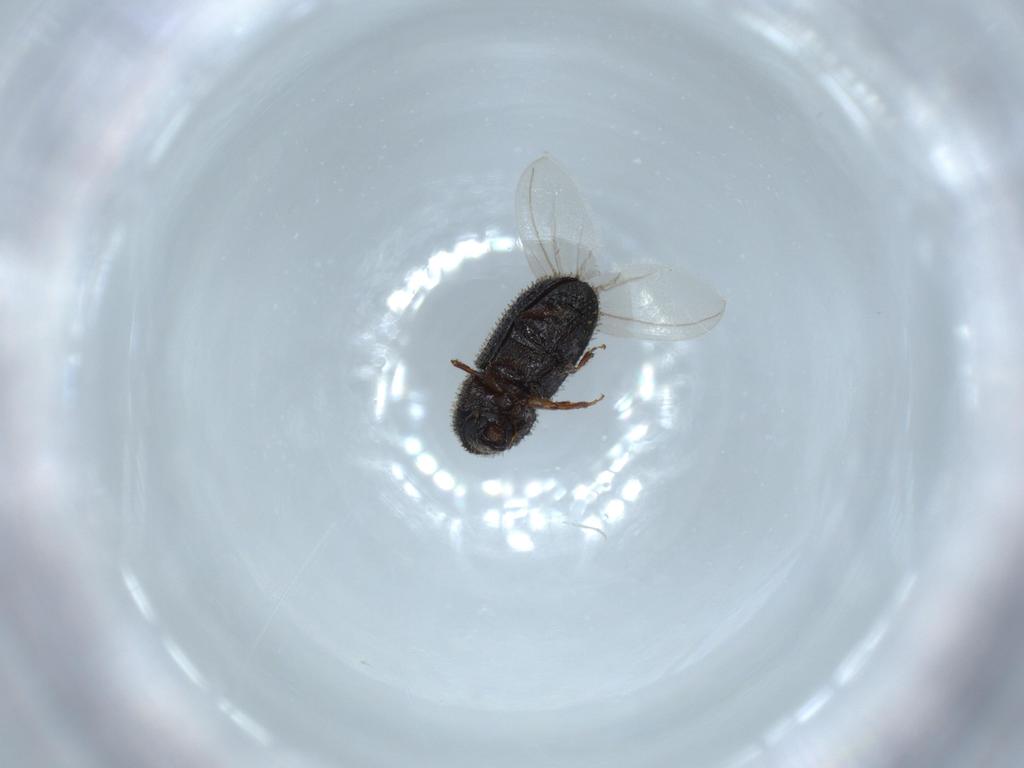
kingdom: Animalia
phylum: Arthropoda
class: Insecta
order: Coleoptera
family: Curculionidae
